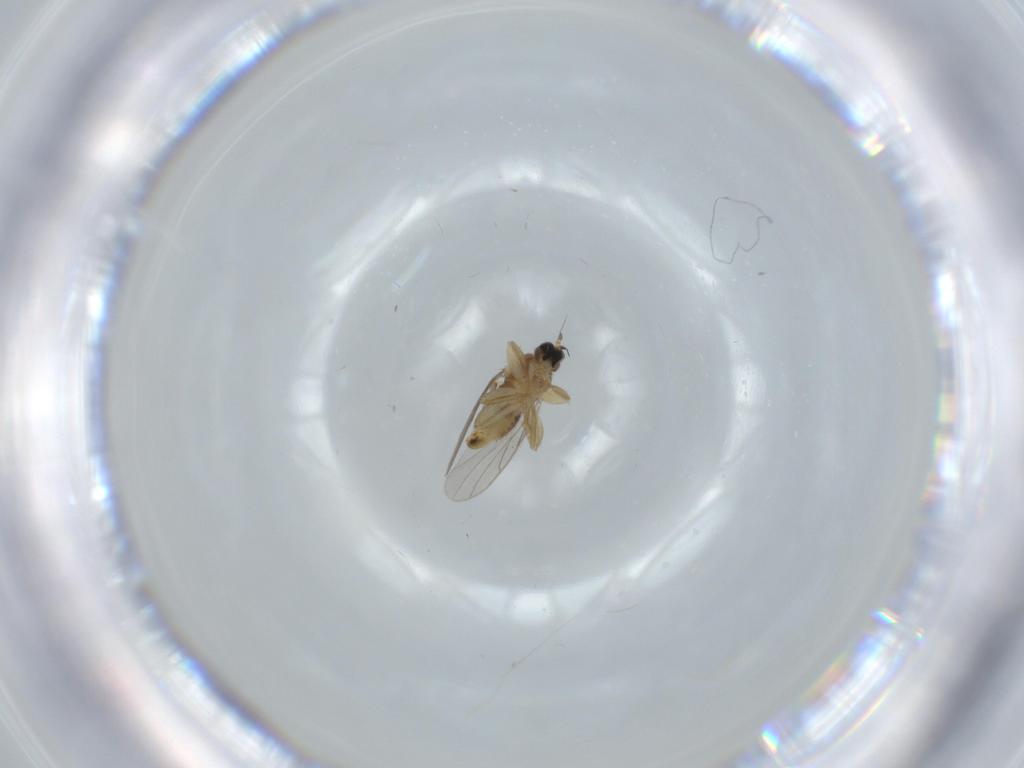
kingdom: Animalia
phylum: Arthropoda
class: Insecta
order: Diptera
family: Hybotidae
